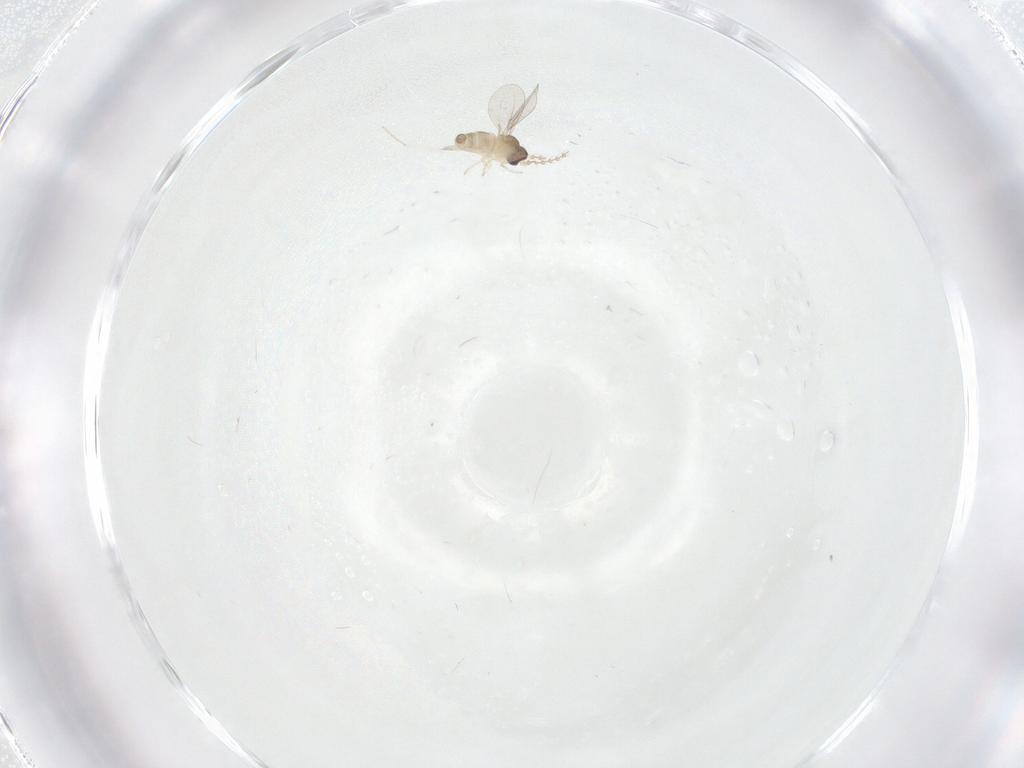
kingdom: Animalia
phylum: Arthropoda
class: Insecta
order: Diptera
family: Cecidomyiidae
